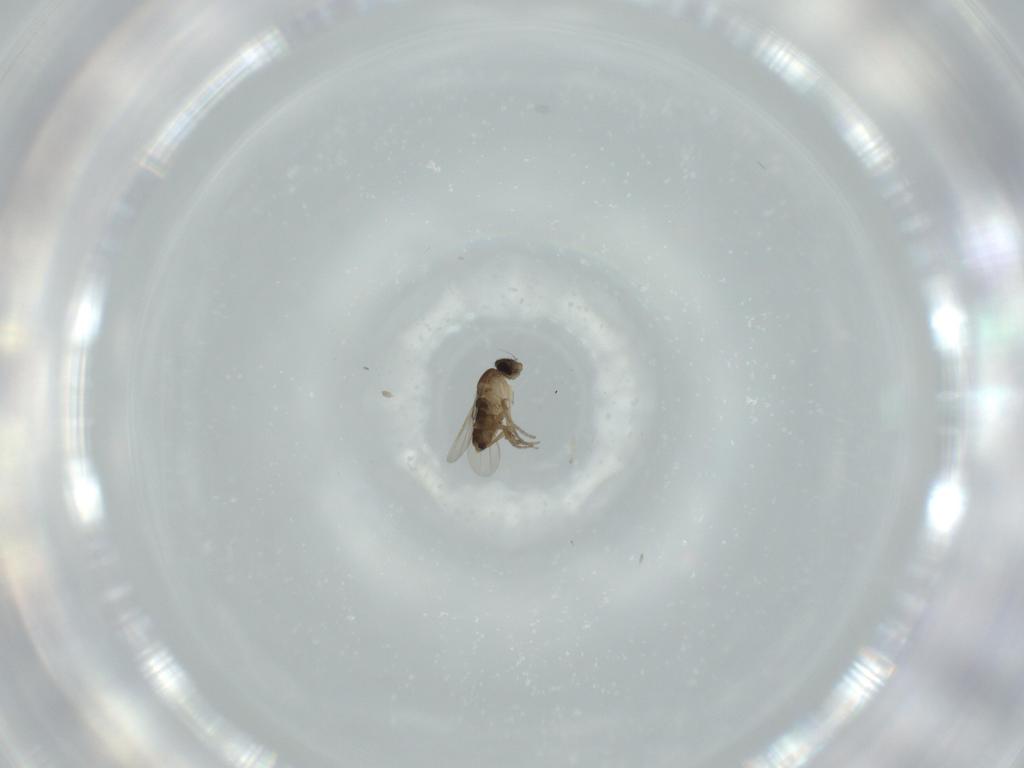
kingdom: Animalia
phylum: Arthropoda
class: Insecta
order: Diptera
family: Phoridae
